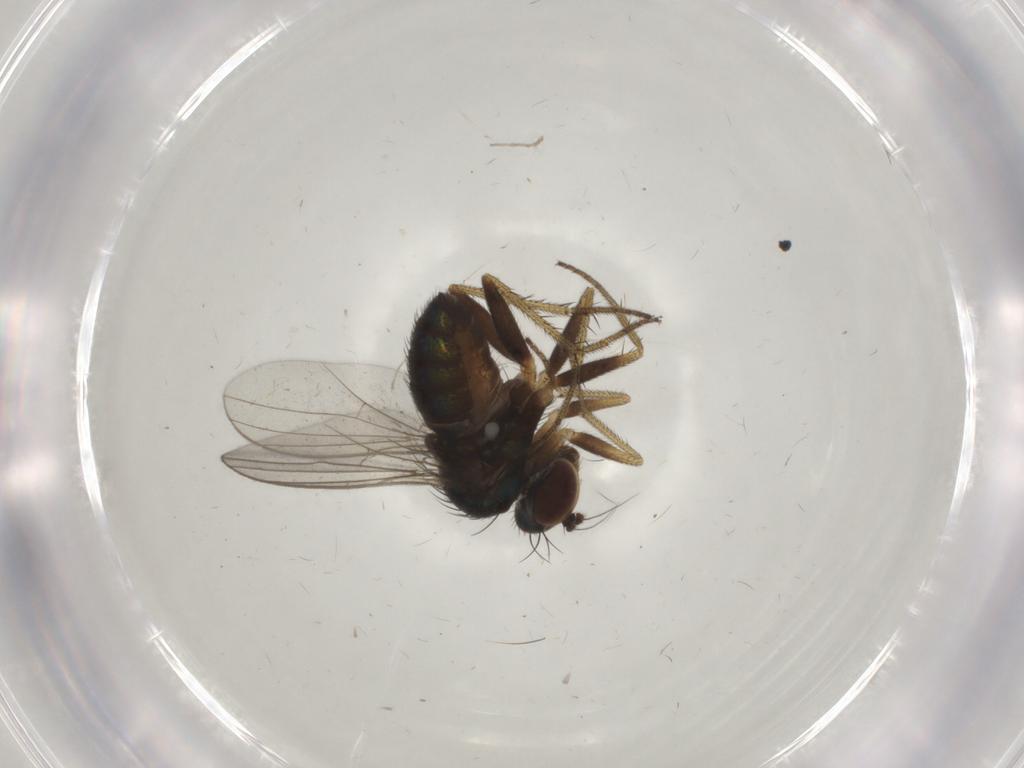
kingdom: Animalia
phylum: Arthropoda
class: Insecta
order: Diptera
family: Dolichopodidae
